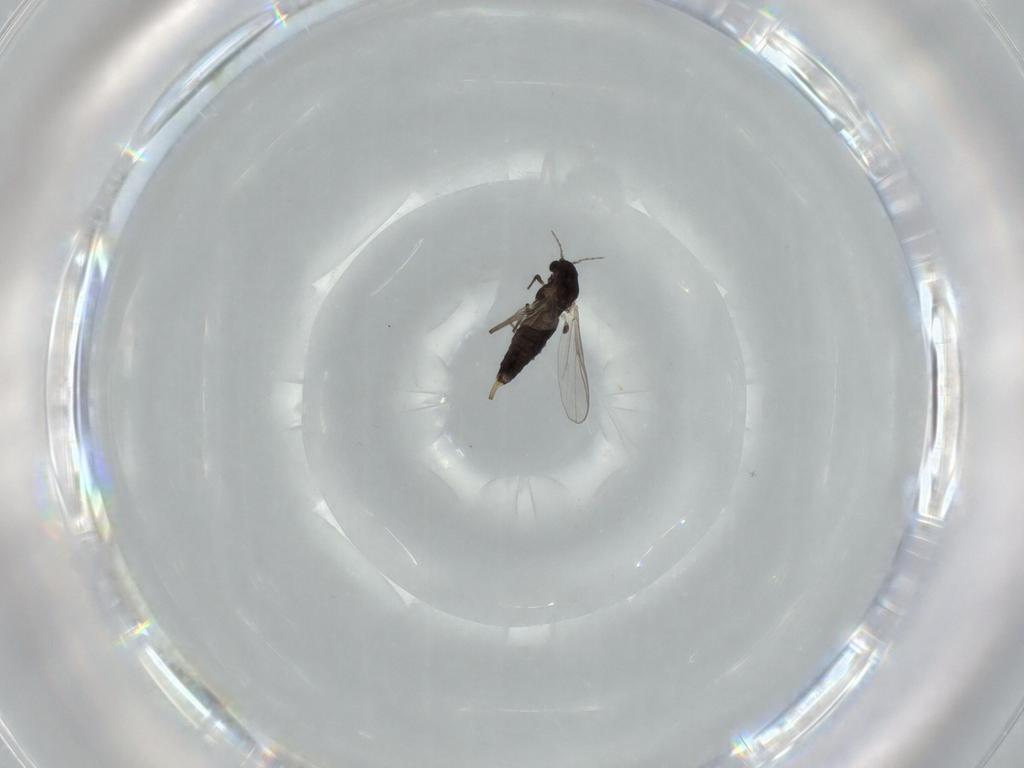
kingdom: Animalia
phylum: Arthropoda
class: Insecta
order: Diptera
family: Chironomidae
